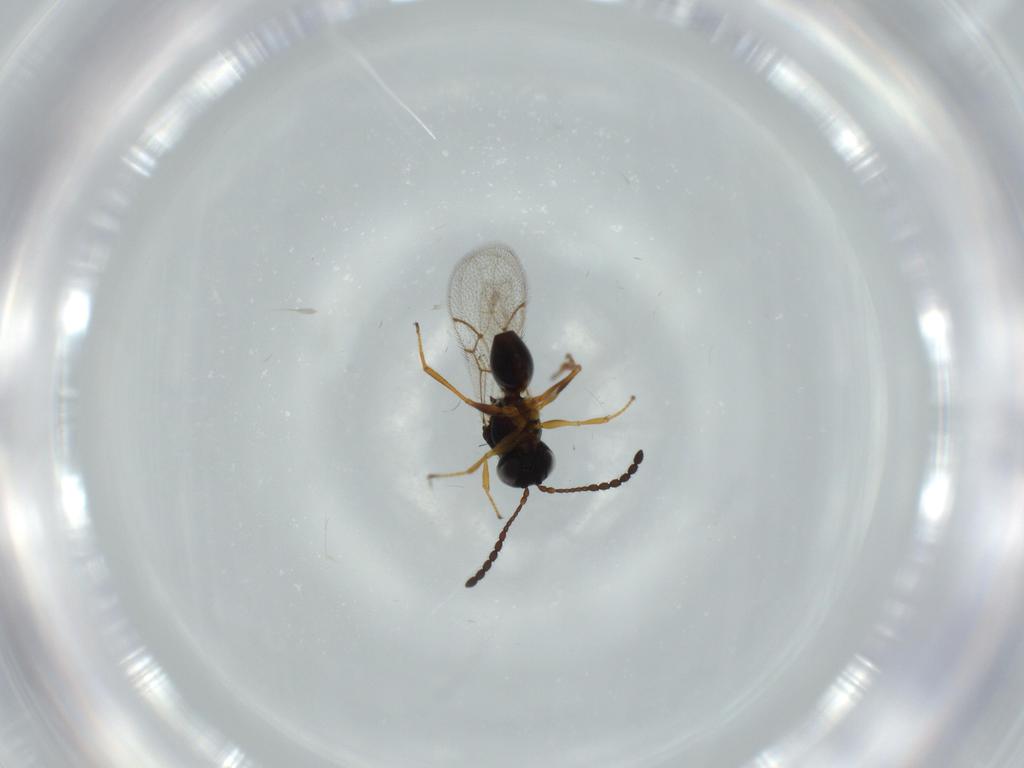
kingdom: Animalia
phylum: Arthropoda
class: Insecta
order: Hymenoptera
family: Figitidae
